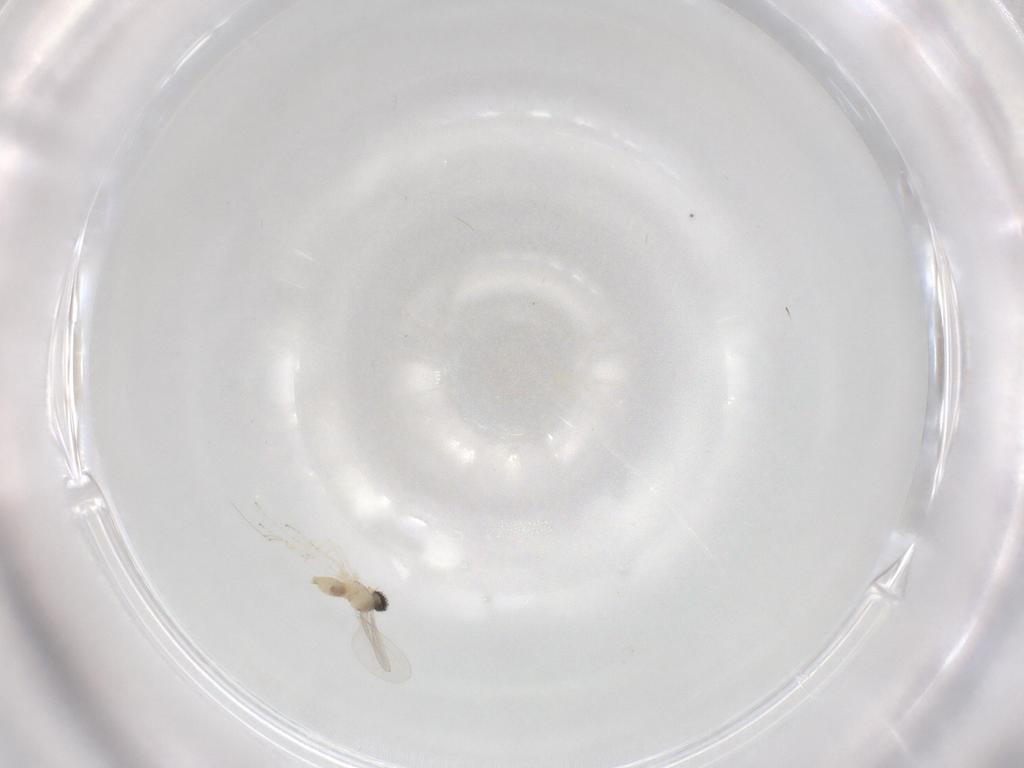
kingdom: Animalia
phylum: Arthropoda
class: Insecta
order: Diptera
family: Cecidomyiidae
